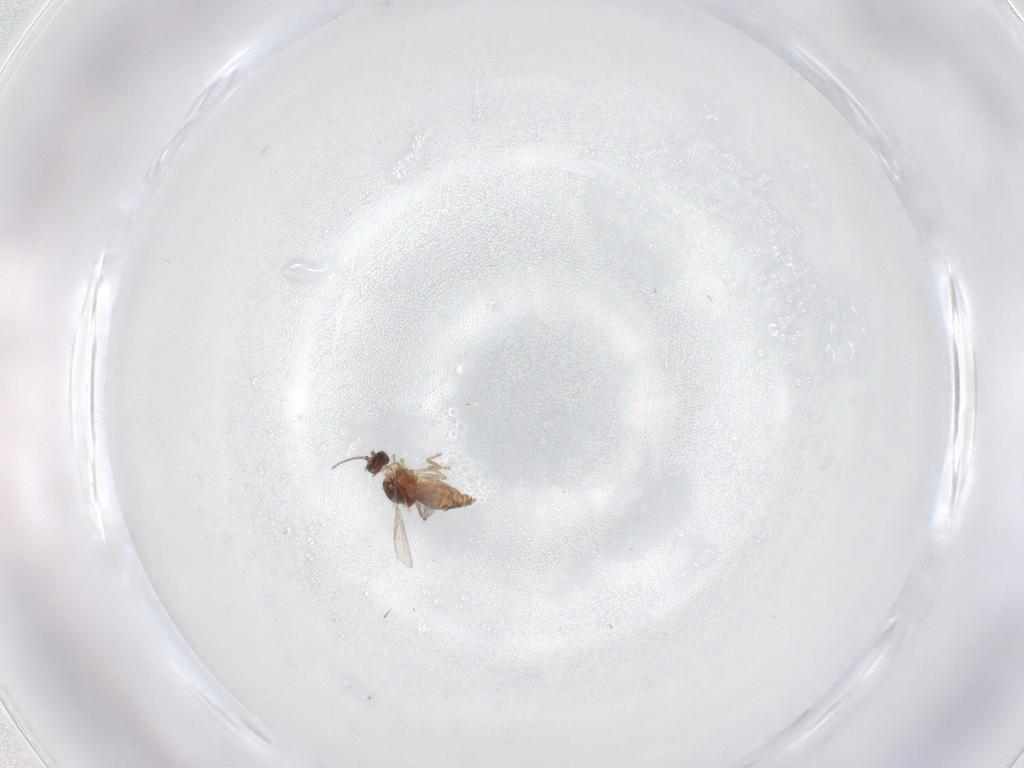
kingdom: Animalia
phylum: Arthropoda
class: Insecta
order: Diptera
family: Ceratopogonidae
